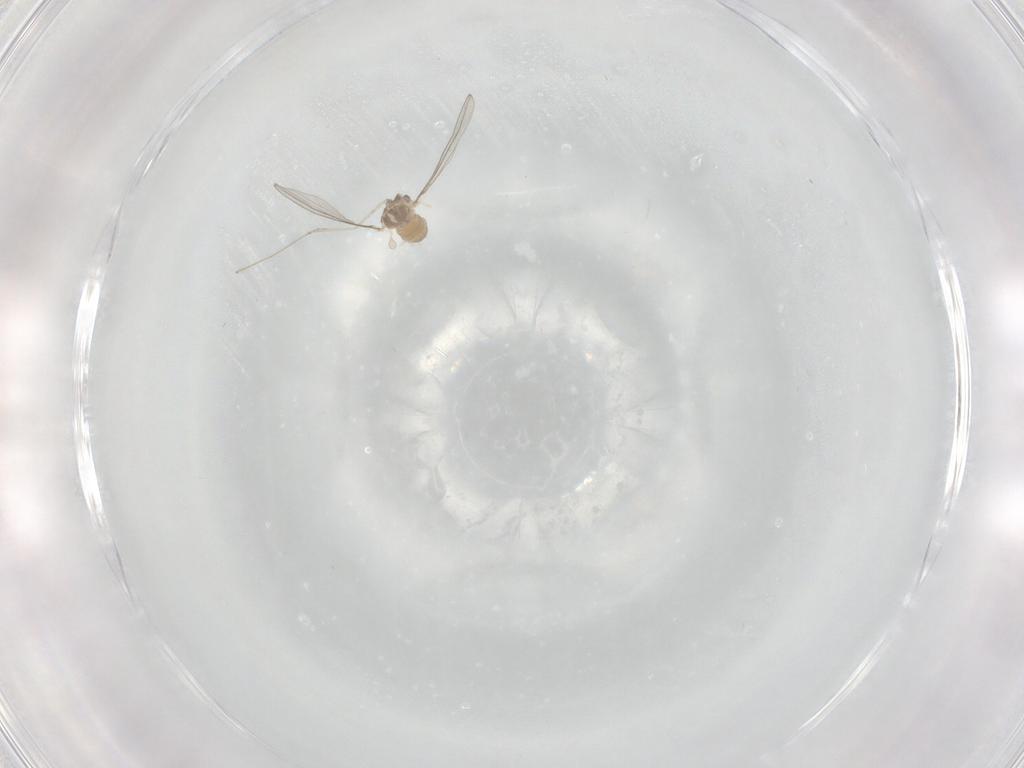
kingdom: Animalia
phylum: Arthropoda
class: Insecta
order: Diptera
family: Cecidomyiidae
